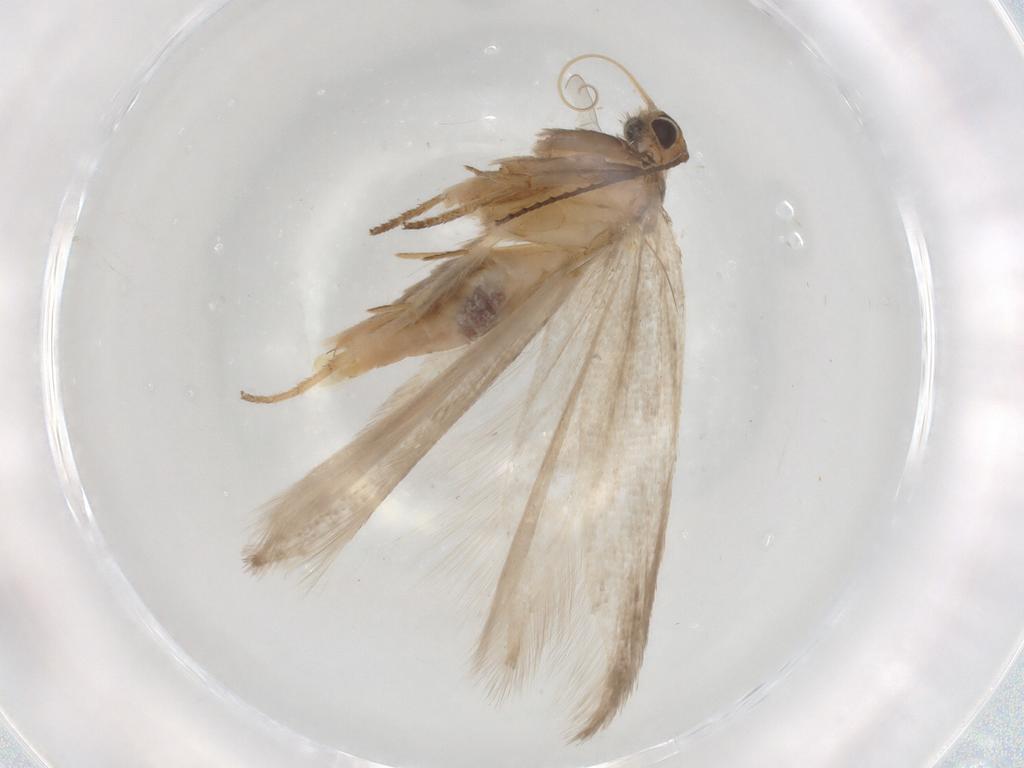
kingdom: Animalia
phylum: Arthropoda
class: Insecta
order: Lepidoptera
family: Gelechiidae
